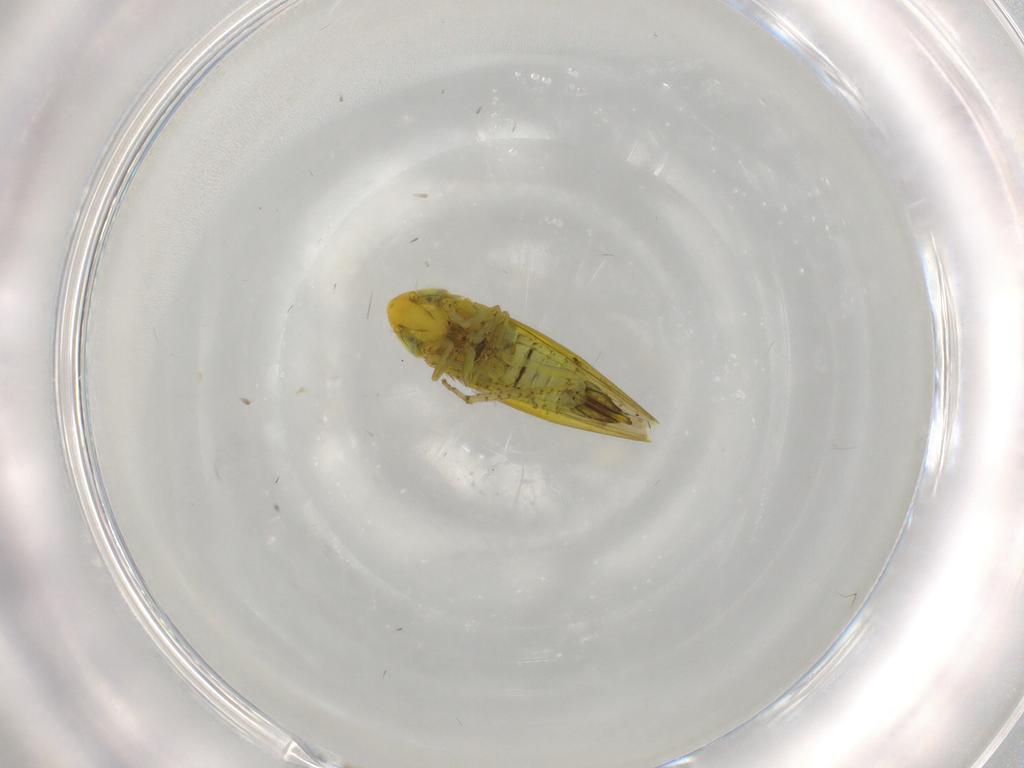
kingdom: Animalia
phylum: Arthropoda
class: Insecta
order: Hemiptera
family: Cicadellidae
